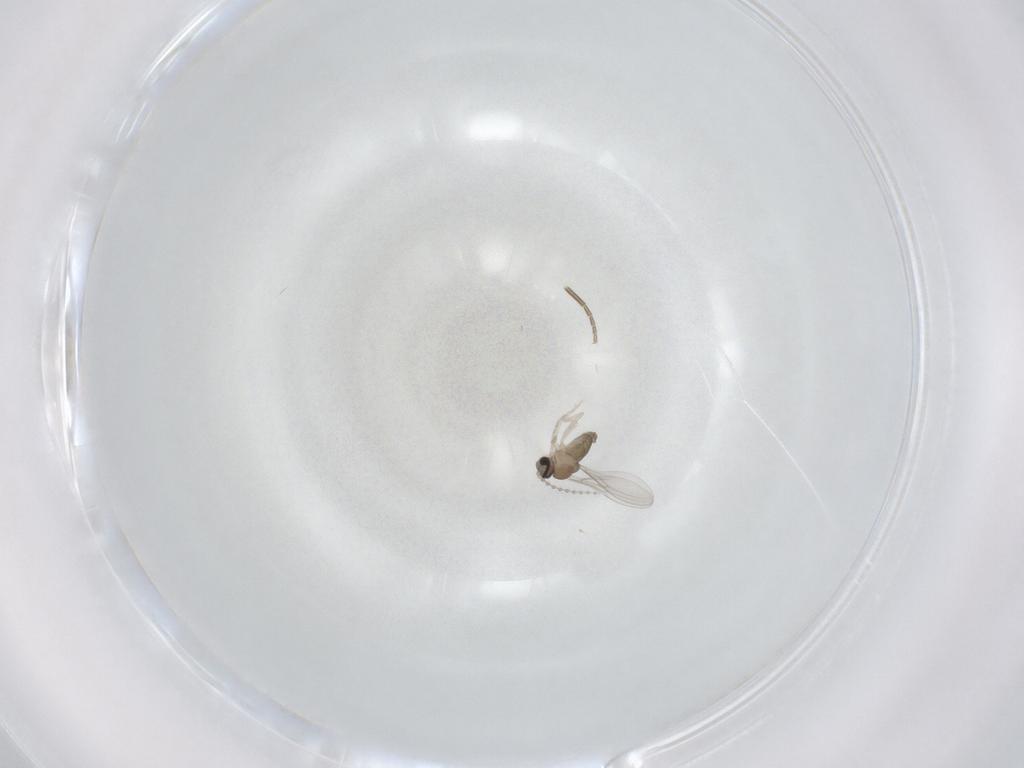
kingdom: Animalia
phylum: Arthropoda
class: Insecta
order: Diptera
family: Cecidomyiidae
